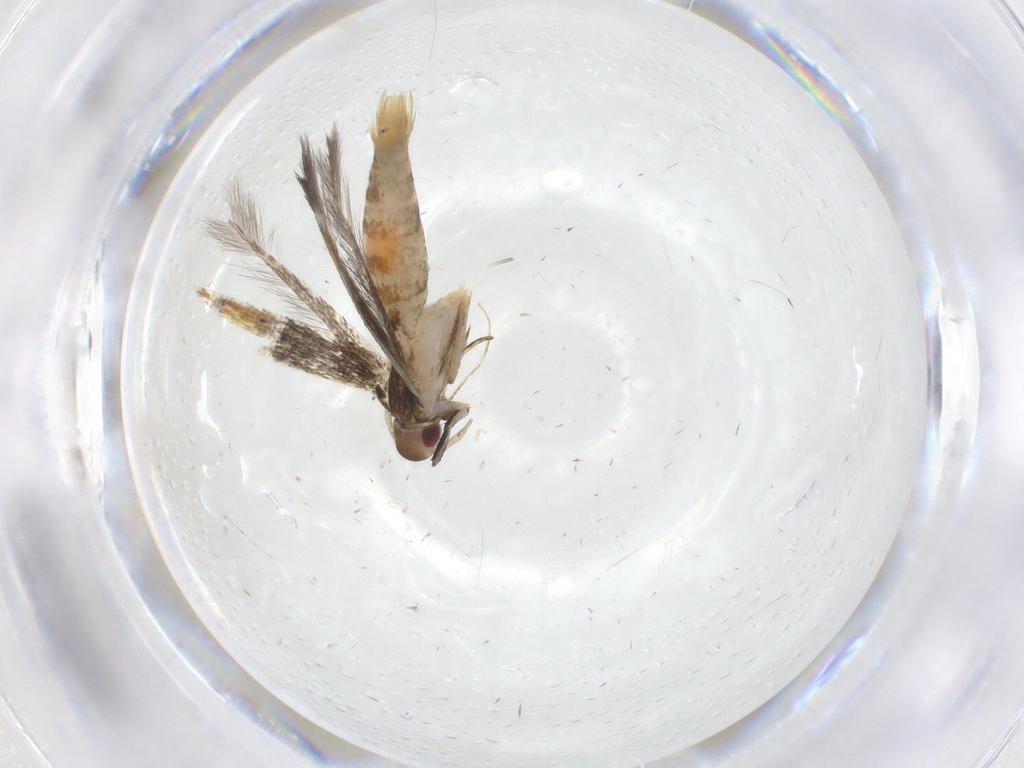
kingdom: Animalia
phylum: Arthropoda
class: Insecta
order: Lepidoptera
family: Cosmopterigidae
